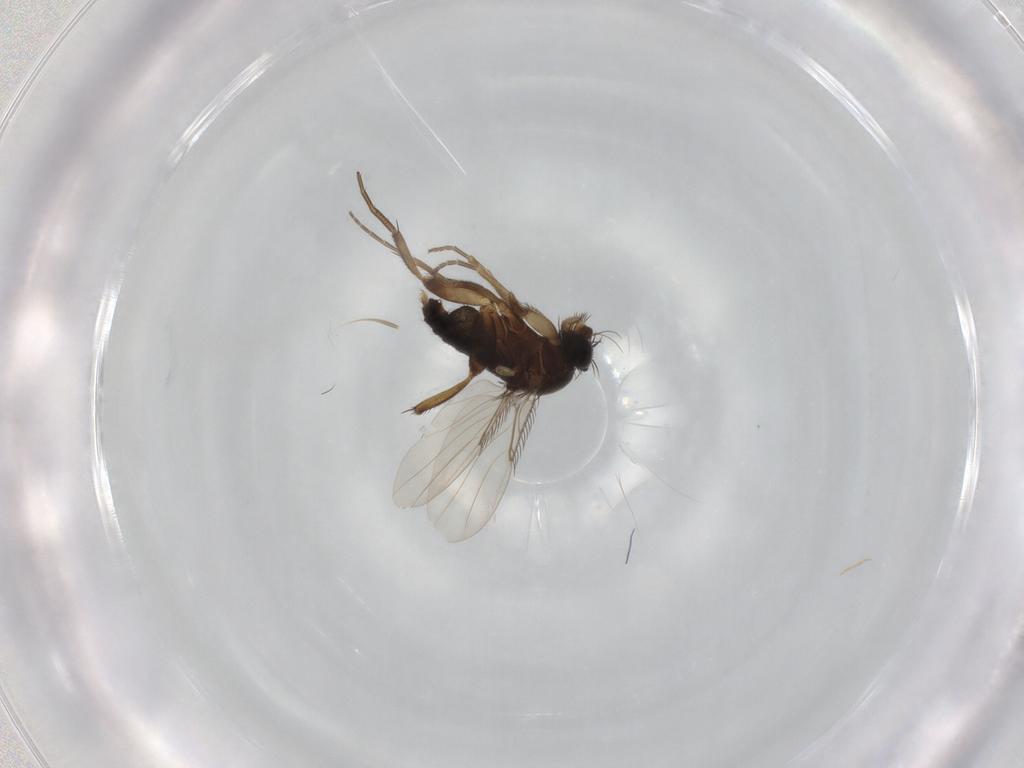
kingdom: Animalia
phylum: Arthropoda
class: Insecta
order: Diptera
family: Phoridae
